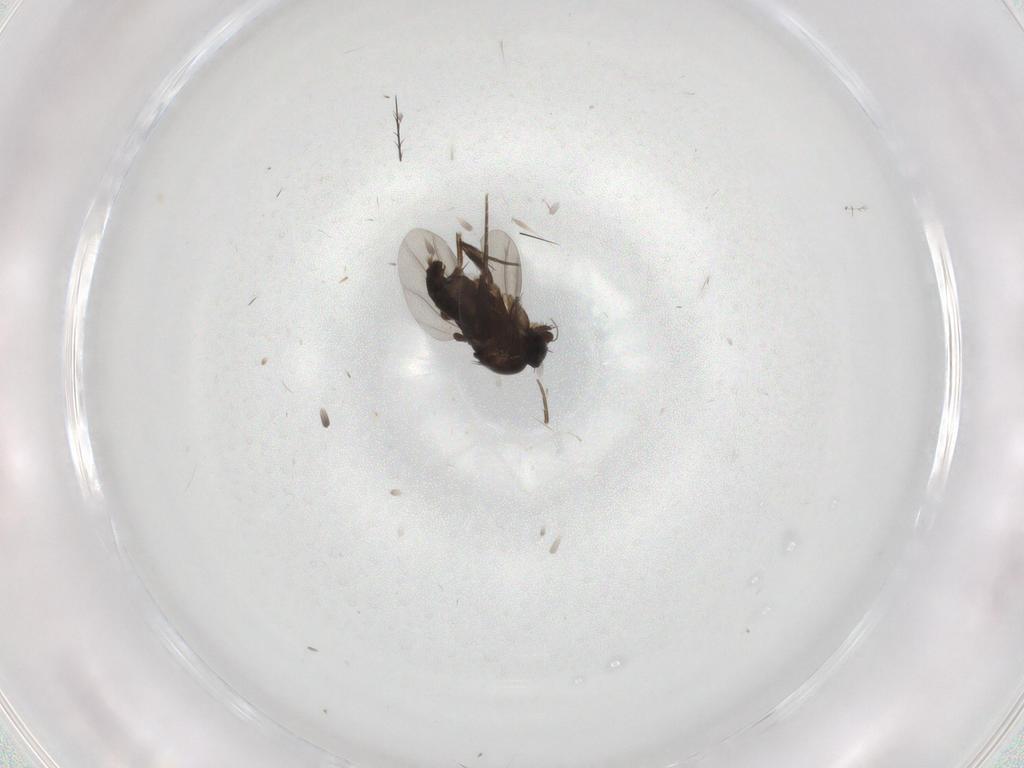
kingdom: Animalia
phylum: Arthropoda
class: Insecta
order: Diptera
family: Phoridae
